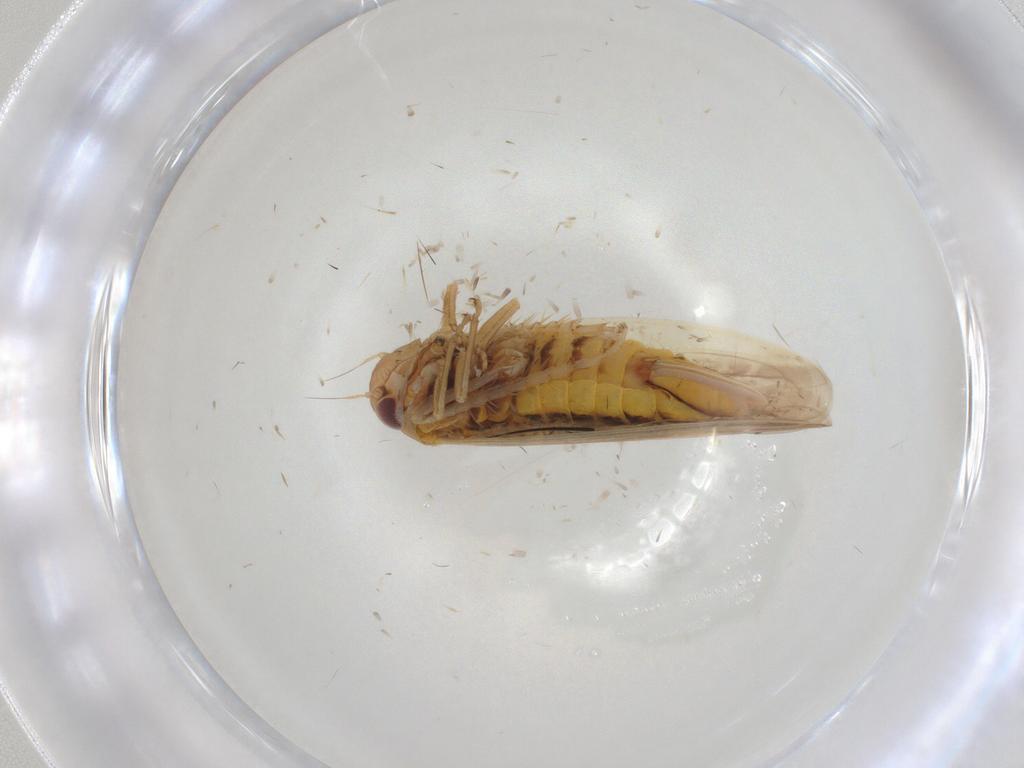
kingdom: Animalia
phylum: Arthropoda
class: Insecta
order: Hemiptera
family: Cicadellidae
